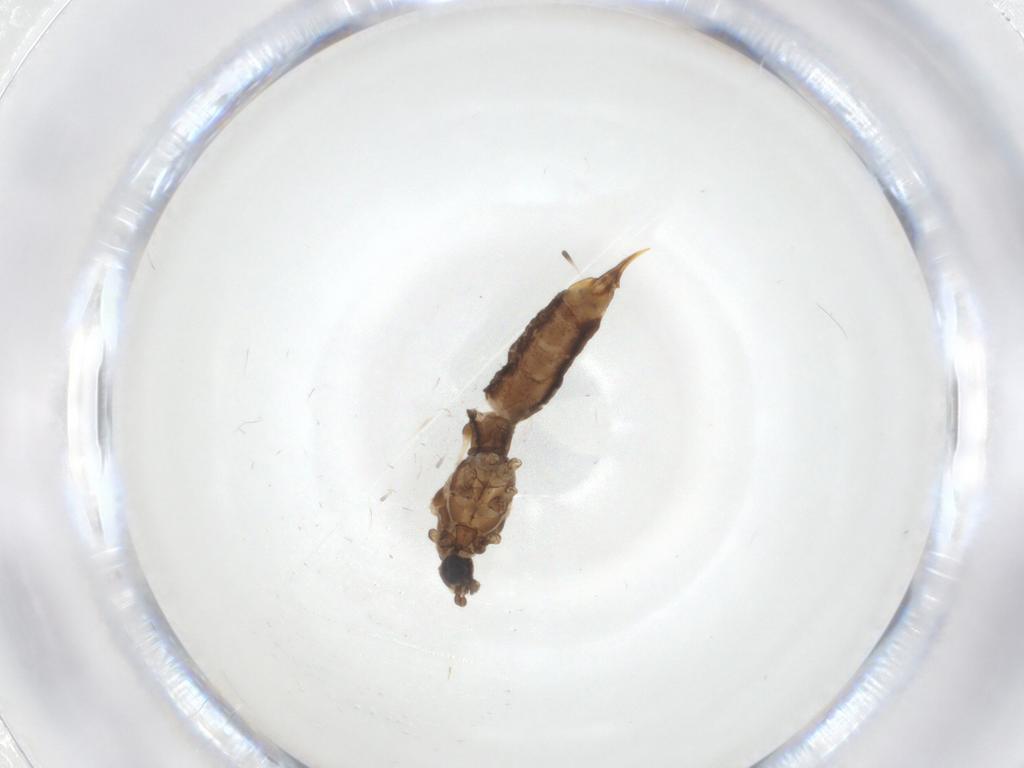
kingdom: Animalia
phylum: Arthropoda
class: Insecta
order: Diptera
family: Limoniidae
